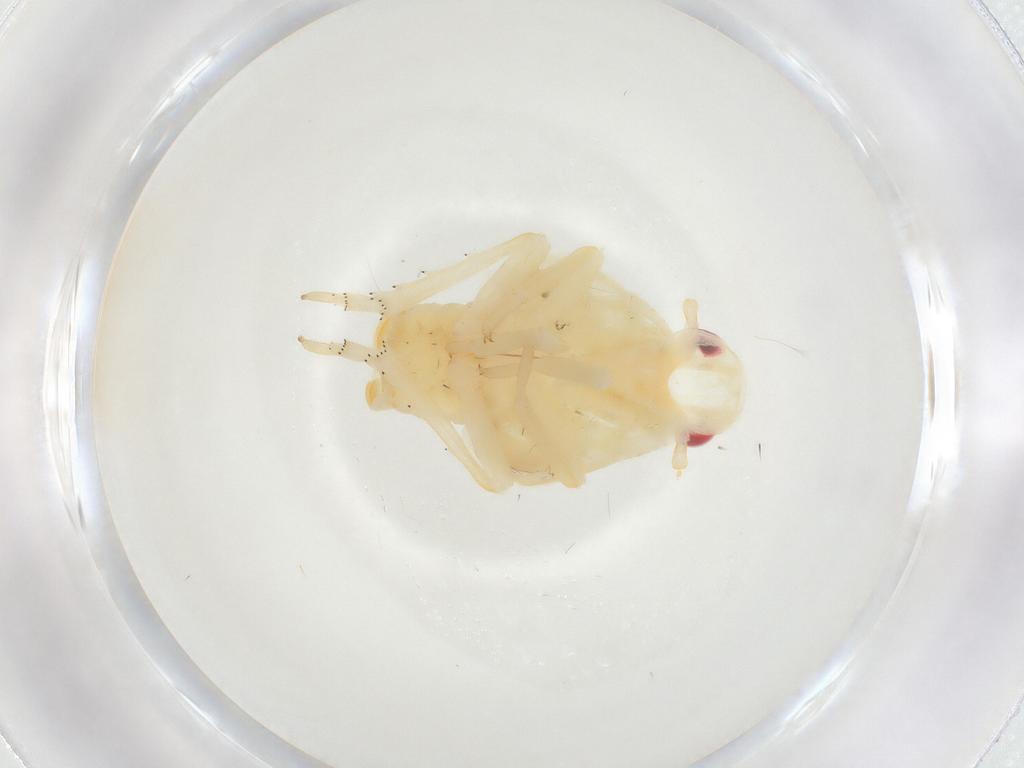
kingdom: Animalia
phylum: Arthropoda
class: Insecta
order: Hemiptera
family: Flatidae
